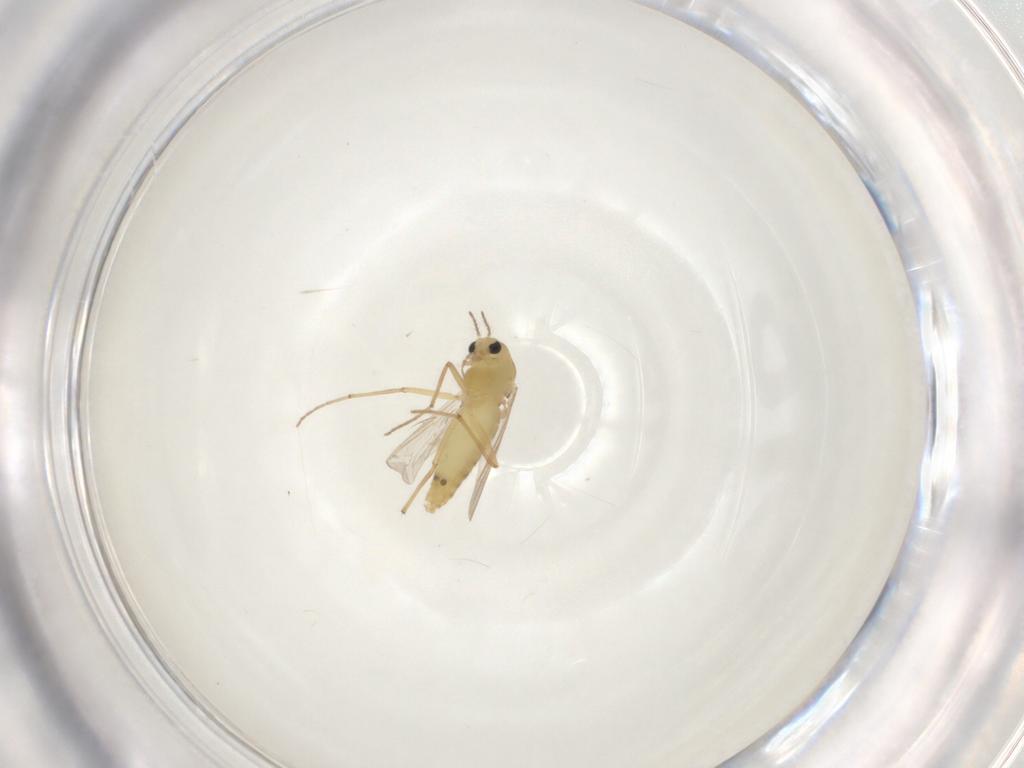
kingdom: Animalia
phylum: Arthropoda
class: Insecta
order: Diptera
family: Chironomidae
